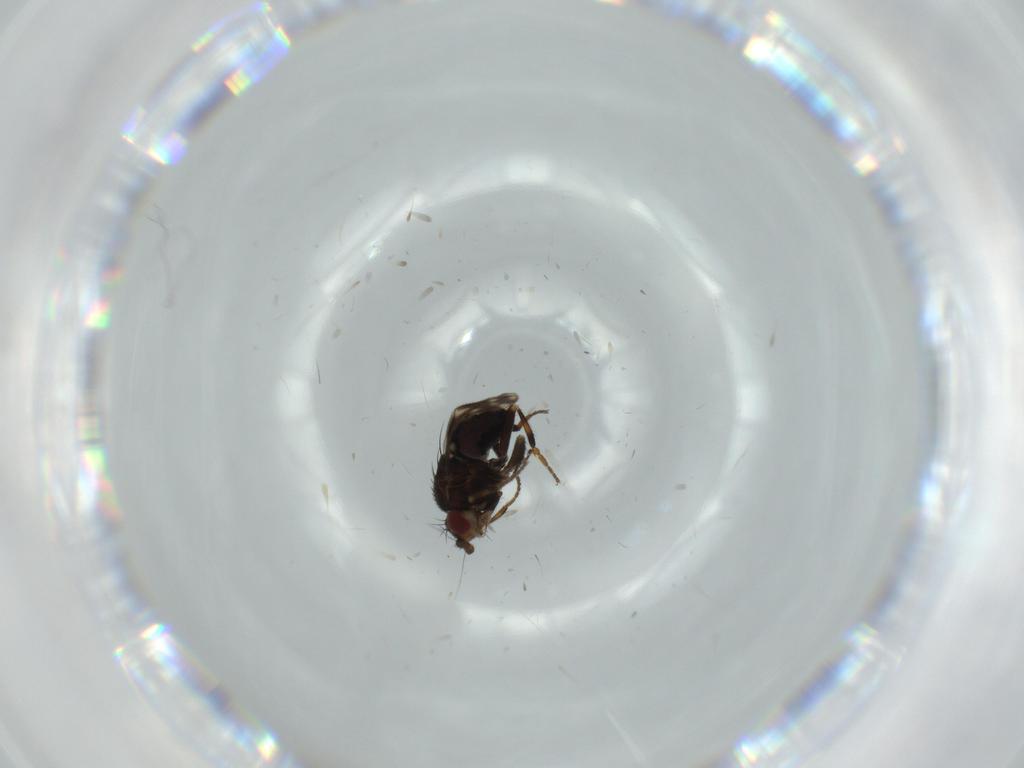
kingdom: Animalia
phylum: Arthropoda
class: Insecta
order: Diptera
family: Sphaeroceridae
